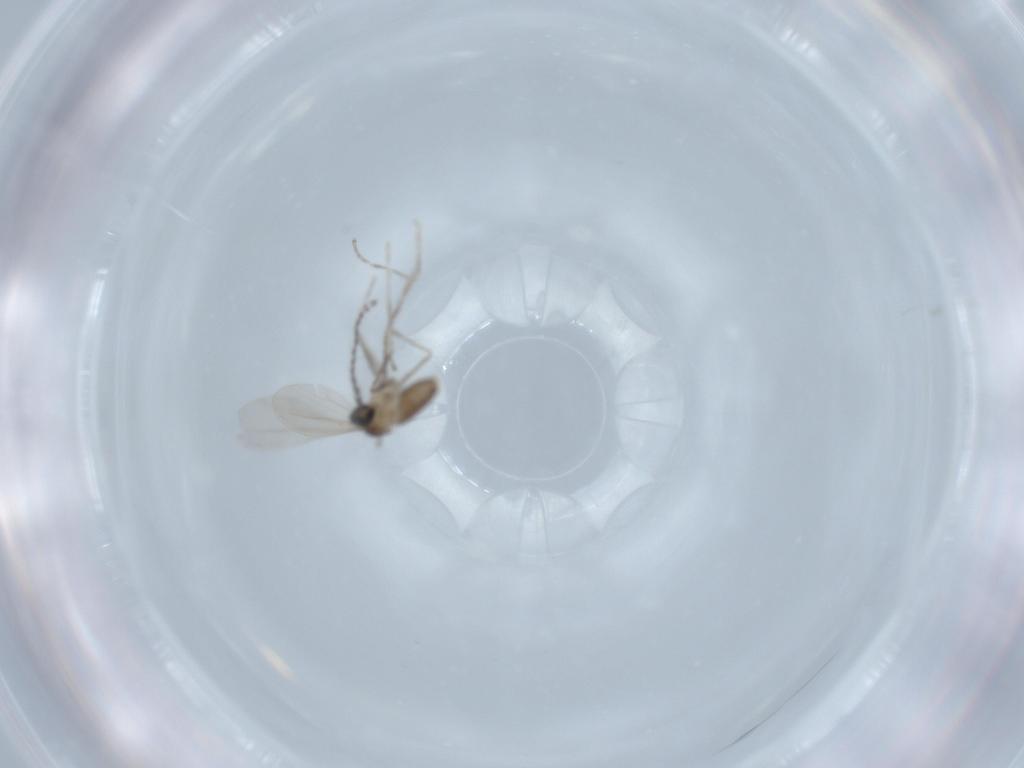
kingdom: Animalia
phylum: Arthropoda
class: Insecta
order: Diptera
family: Cecidomyiidae
